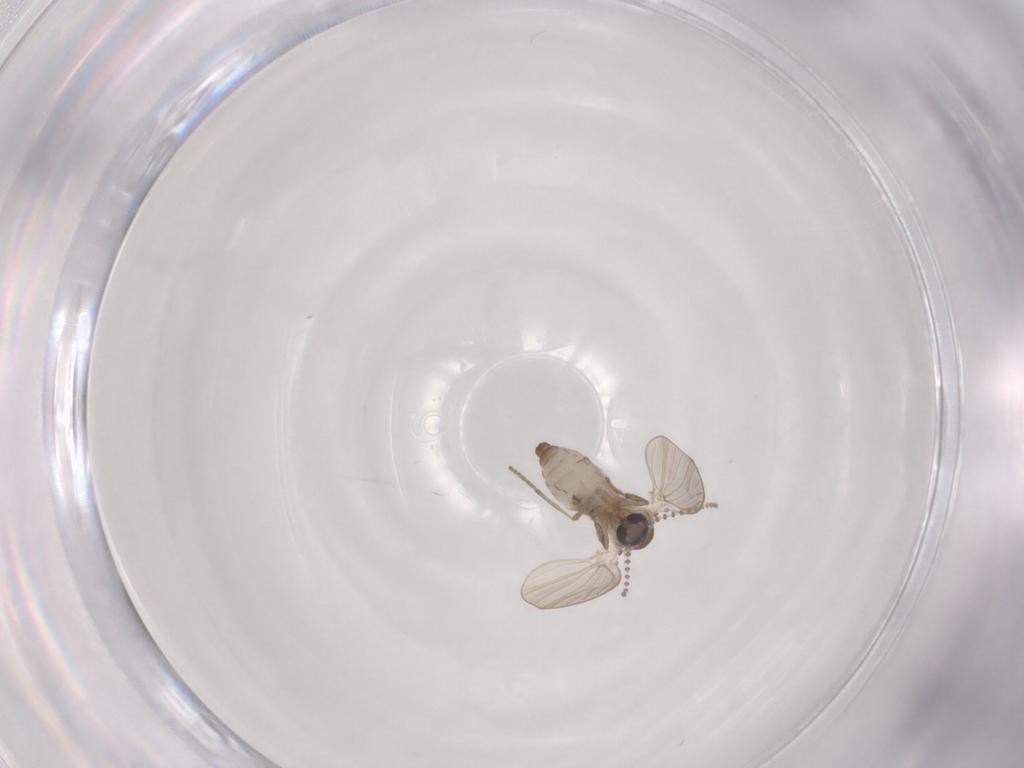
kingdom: Animalia
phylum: Arthropoda
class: Insecta
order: Diptera
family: Psychodidae
